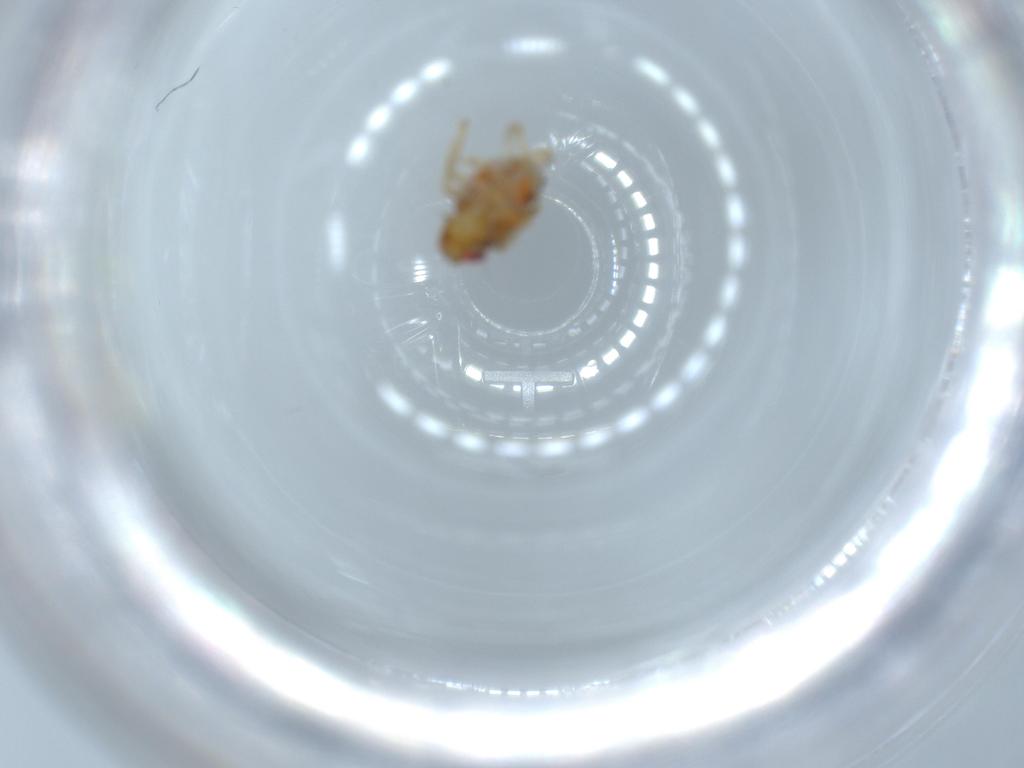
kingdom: Animalia
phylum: Arthropoda
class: Insecta
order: Hemiptera
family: Issidae
